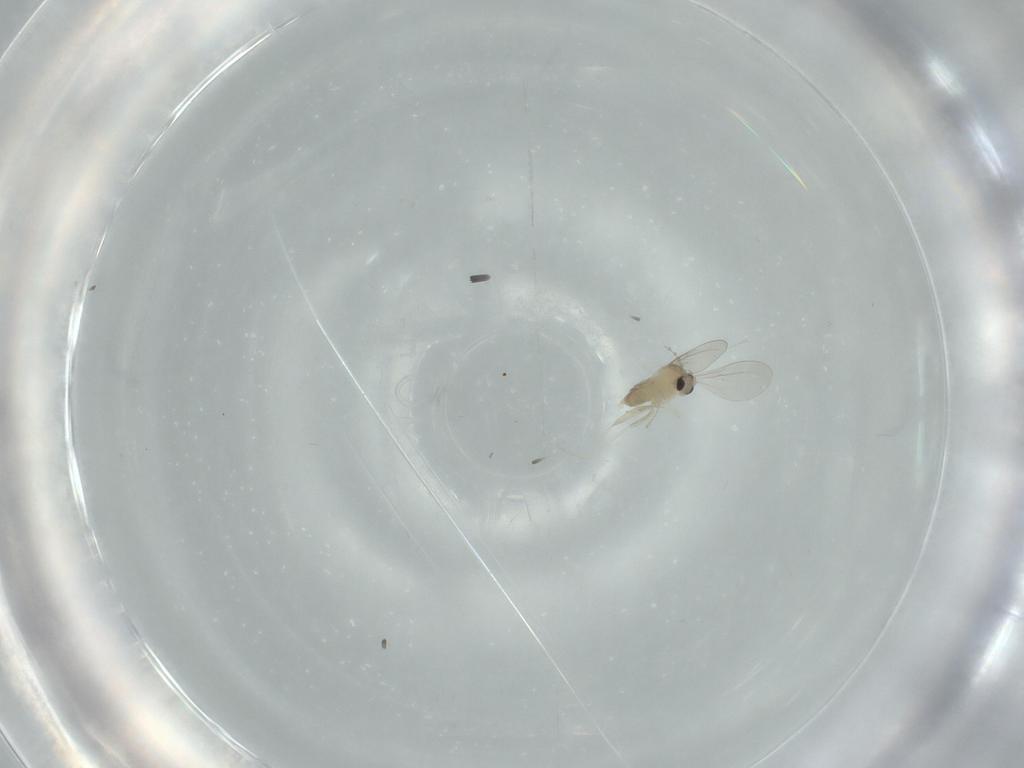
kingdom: Animalia
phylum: Arthropoda
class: Insecta
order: Diptera
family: Cecidomyiidae
